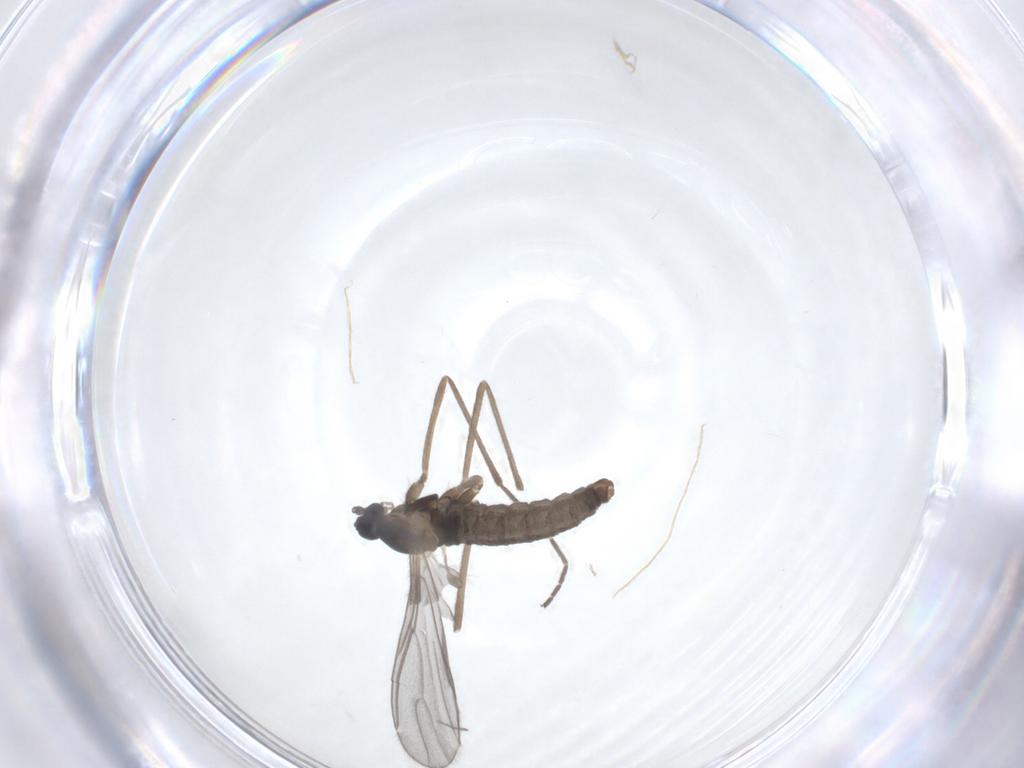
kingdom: Animalia
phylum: Arthropoda
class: Insecta
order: Diptera
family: Cecidomyiidae
